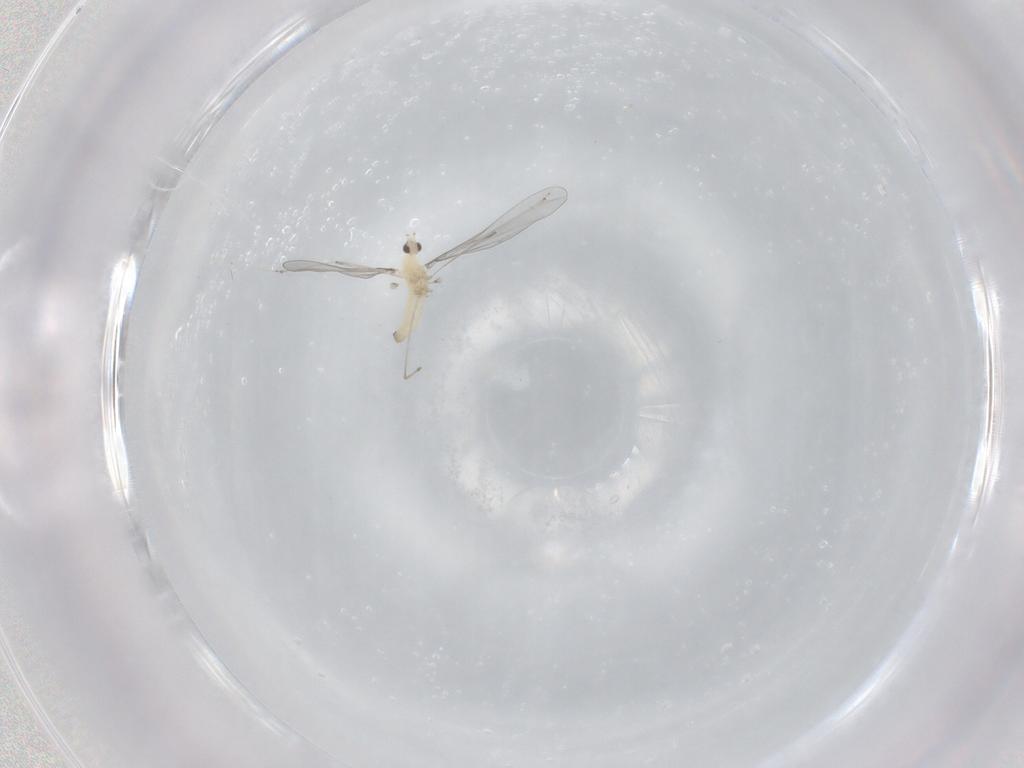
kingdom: Animalia
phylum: Arthropoda
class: Insecta
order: Diptera
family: Cecidomyiidae
